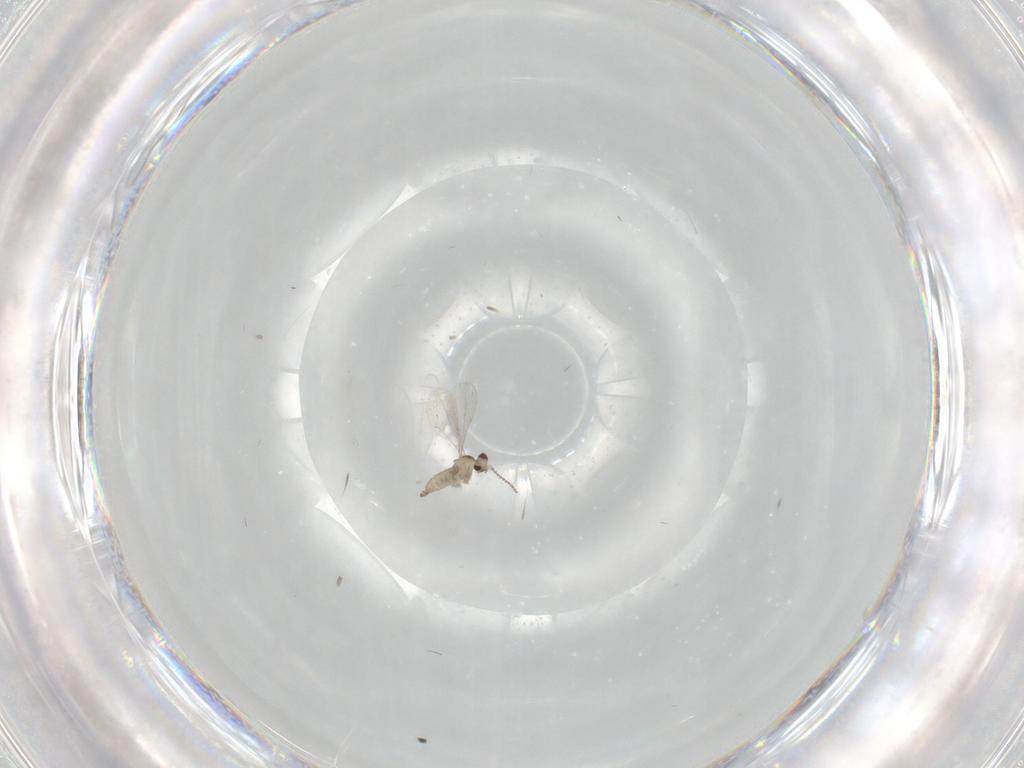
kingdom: Animalia
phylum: Arthropoda
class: Insecta
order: Diptera
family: Cecidomyiidae
